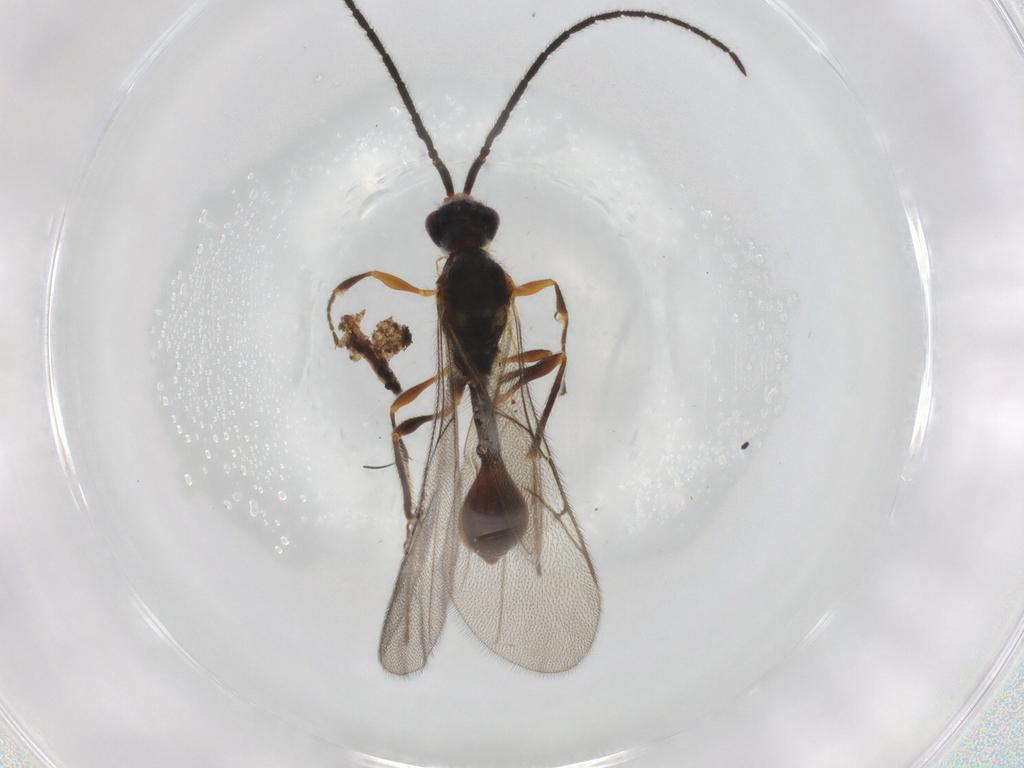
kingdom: Animalia
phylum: Arthropoda
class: Insecta
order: Hymenoptera
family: Diapriidae
